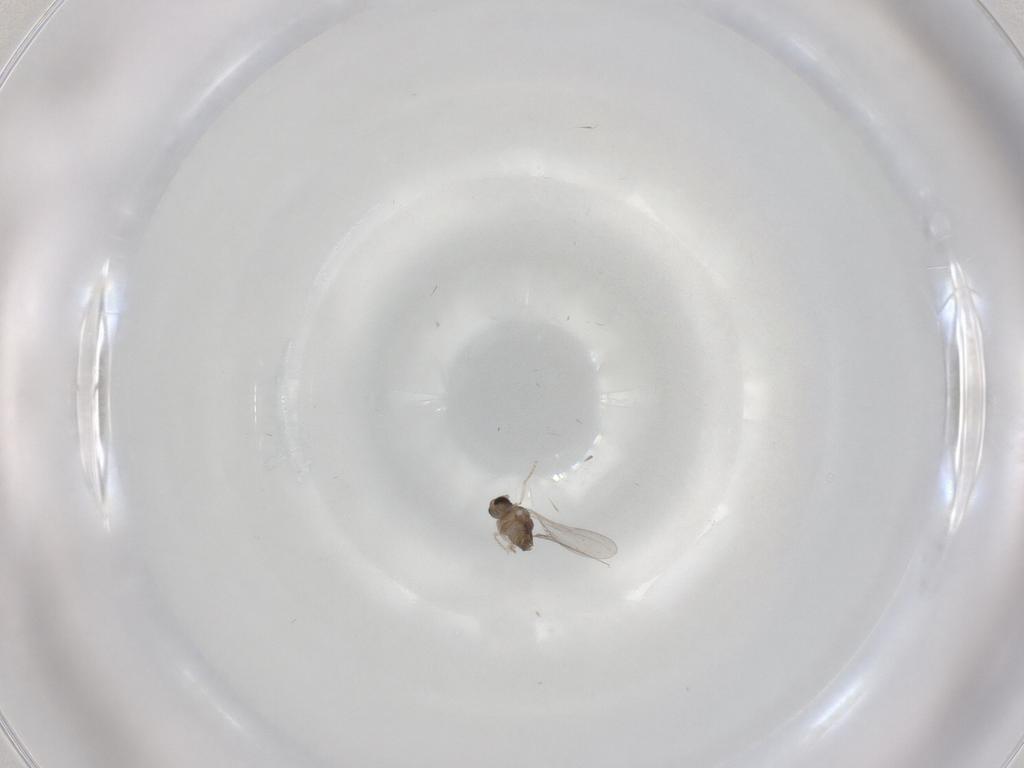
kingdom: Animalia
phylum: Arthropoda
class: Insecta
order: Diptera
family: Cecidomyiidae
